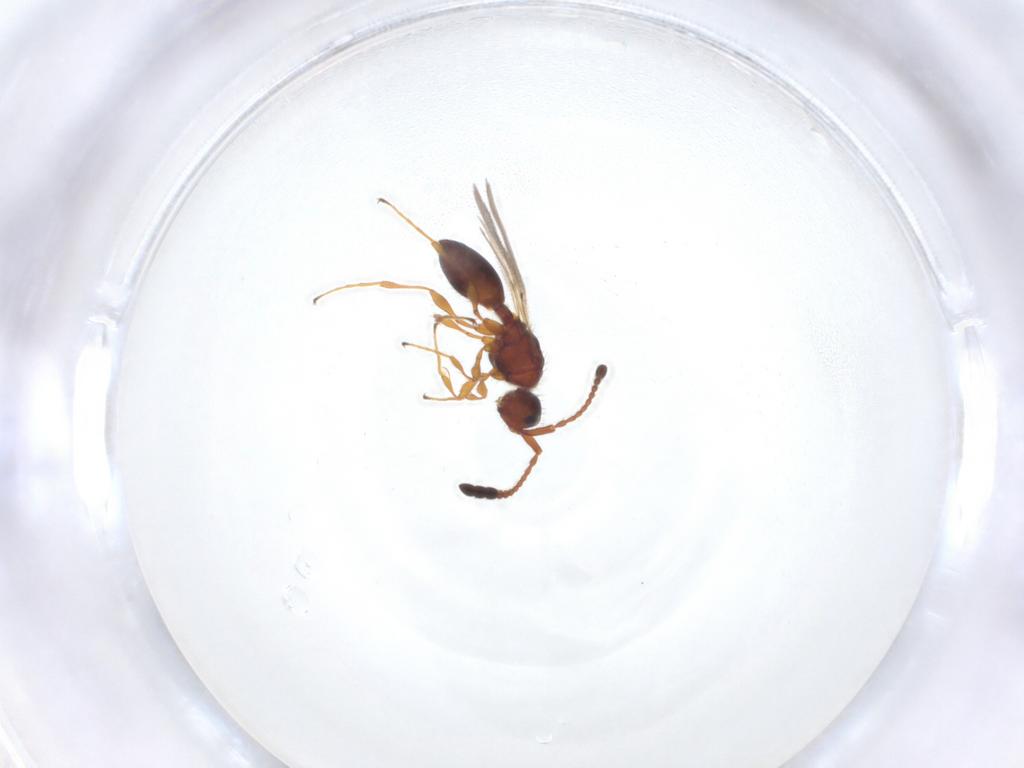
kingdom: Animalia
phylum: Arthropoda
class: Insecta
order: Hymenoptera
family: Diapriidae
